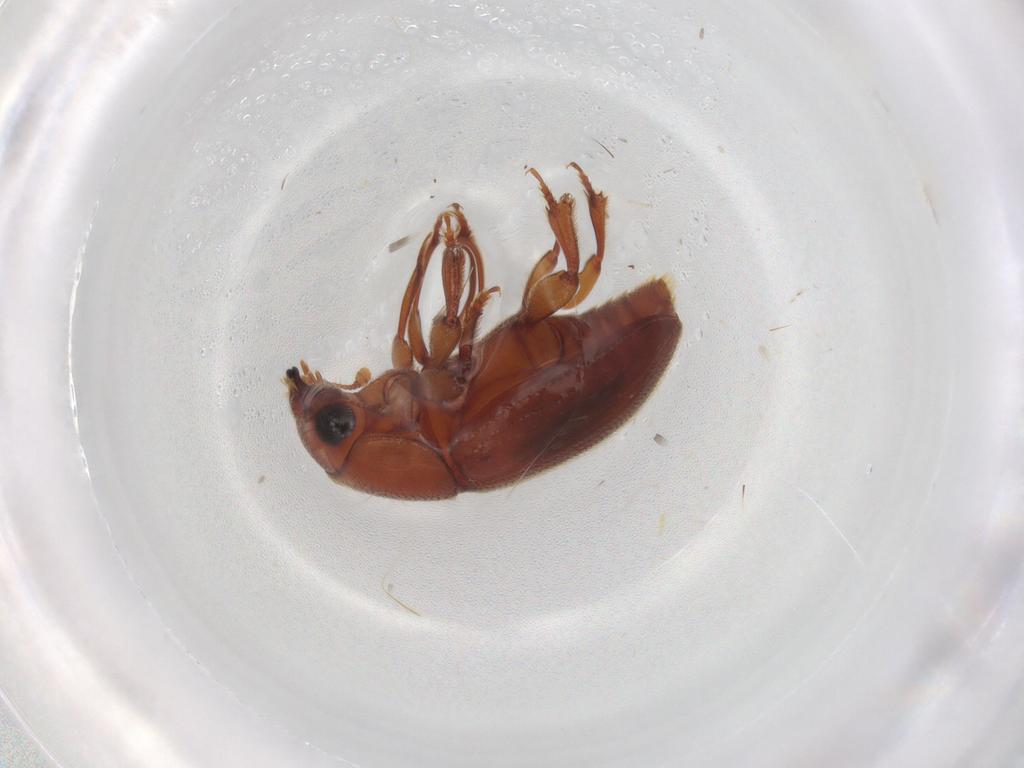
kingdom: Animalia
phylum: Arthropoda
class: Insecta
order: Coleoptera
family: Nitidulidae
